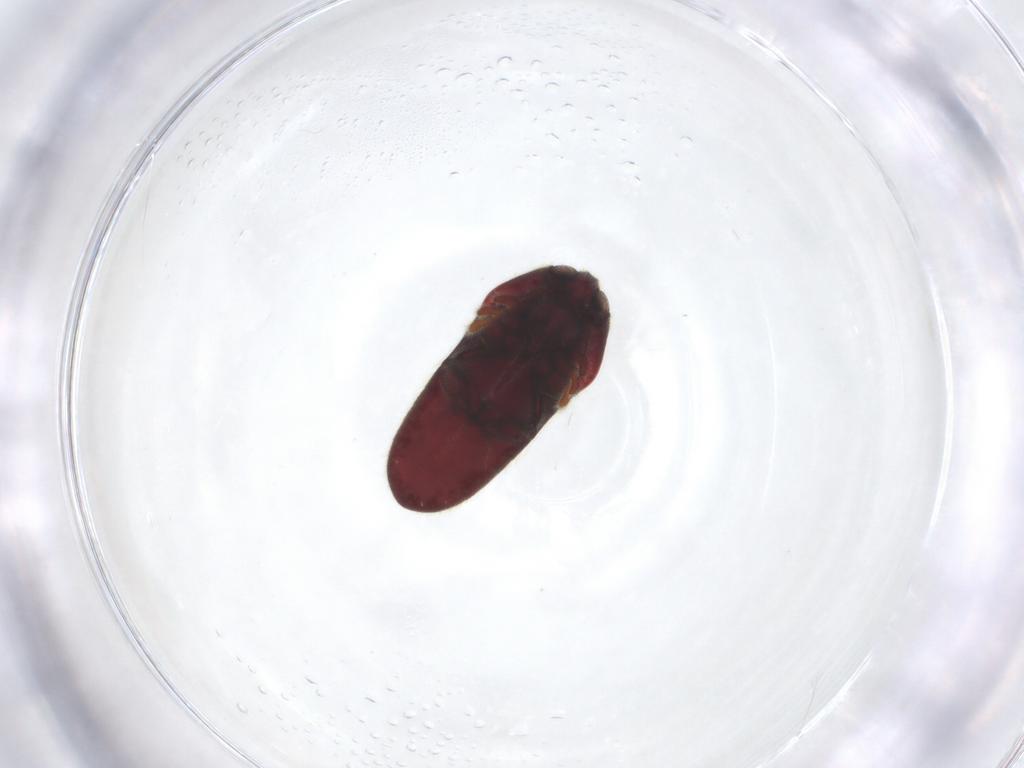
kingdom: Animalia
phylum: Arthropoda
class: Insecta
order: Coleoptera
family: Throscidae
